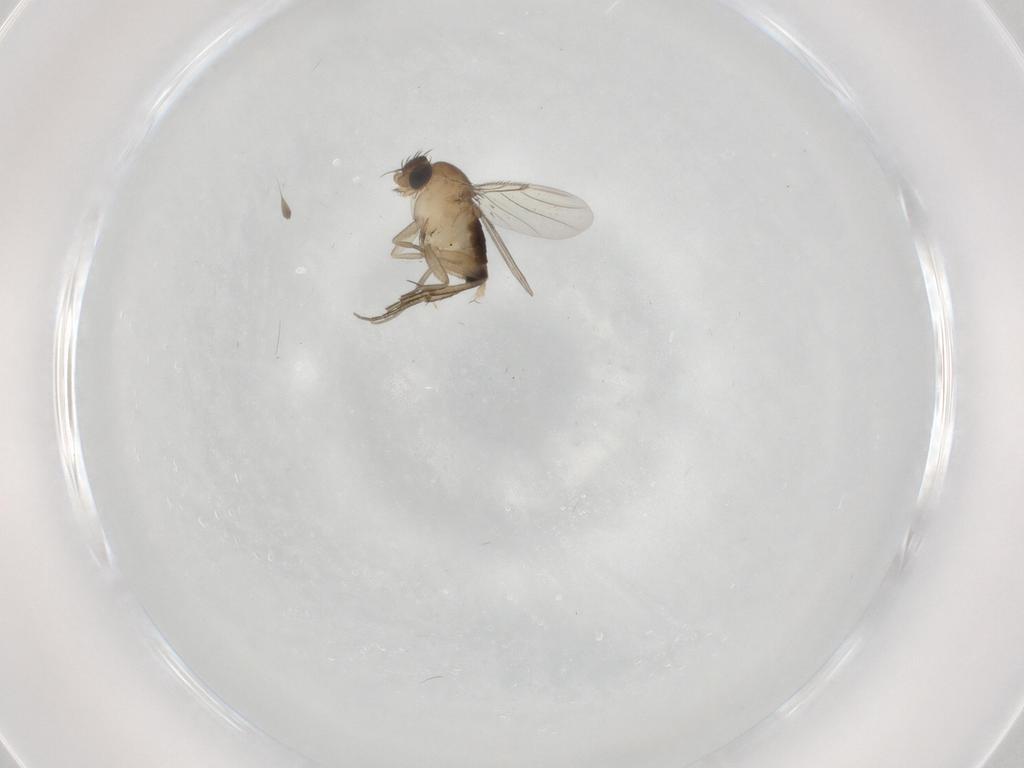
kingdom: Animalia
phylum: Arthropoda
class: Insecta
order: Diptera
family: Phoridae
